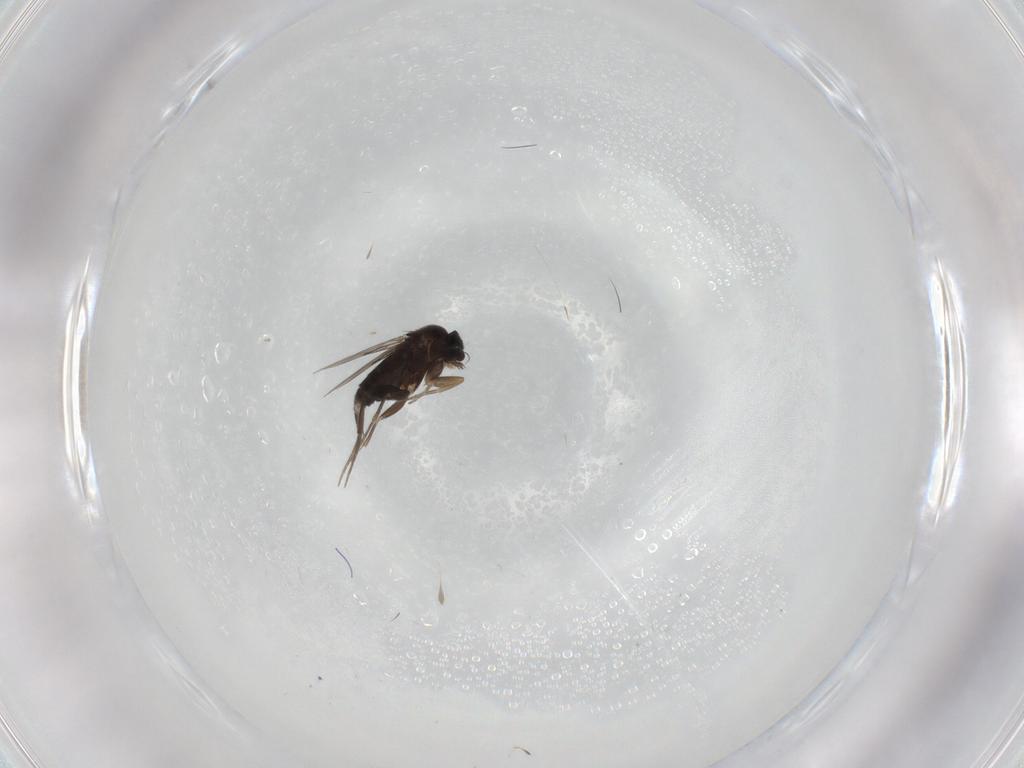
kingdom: Animalia
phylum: Arthropoda
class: Insecta
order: Diptera
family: Phoridae
